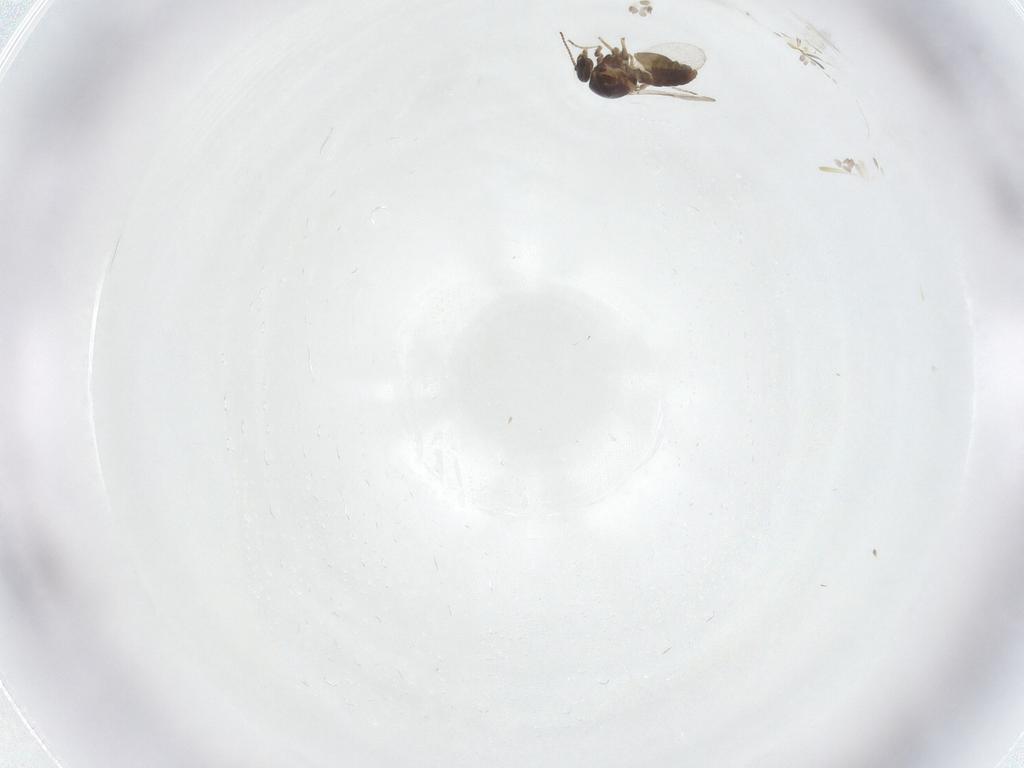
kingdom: Animalia
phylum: Arthropoda
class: Insecta
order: Diptera
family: Ceratopogonidae
